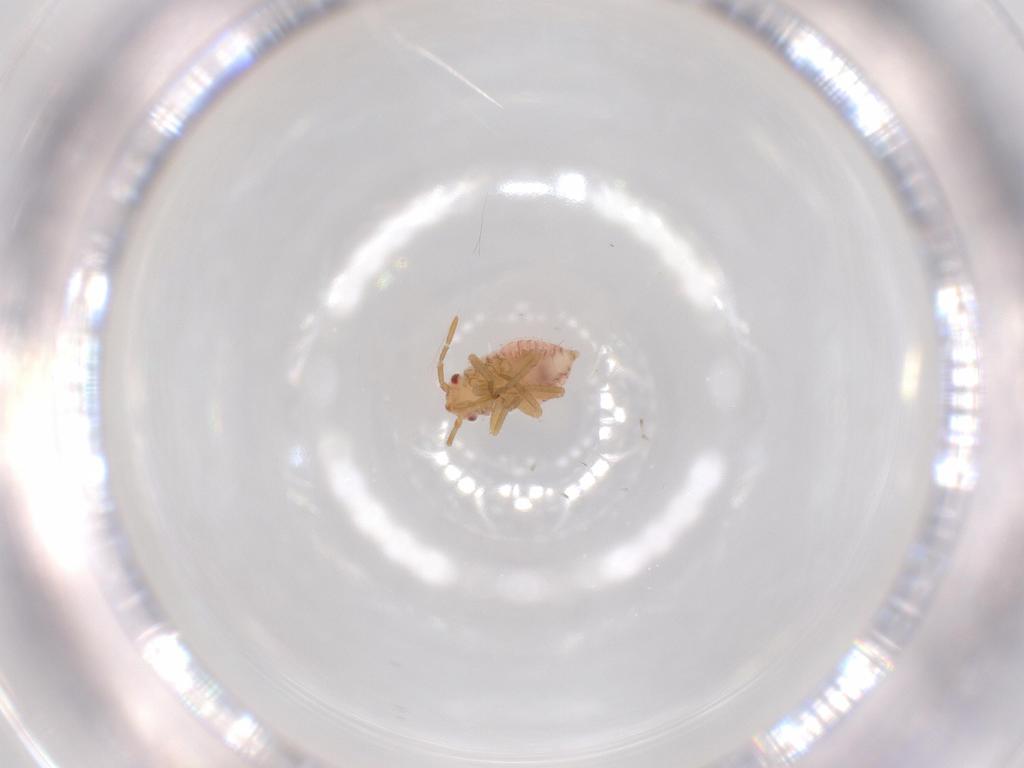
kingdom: Animalia
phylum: Arthropoda
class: Insecta
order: Hemiptera
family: Miridae
